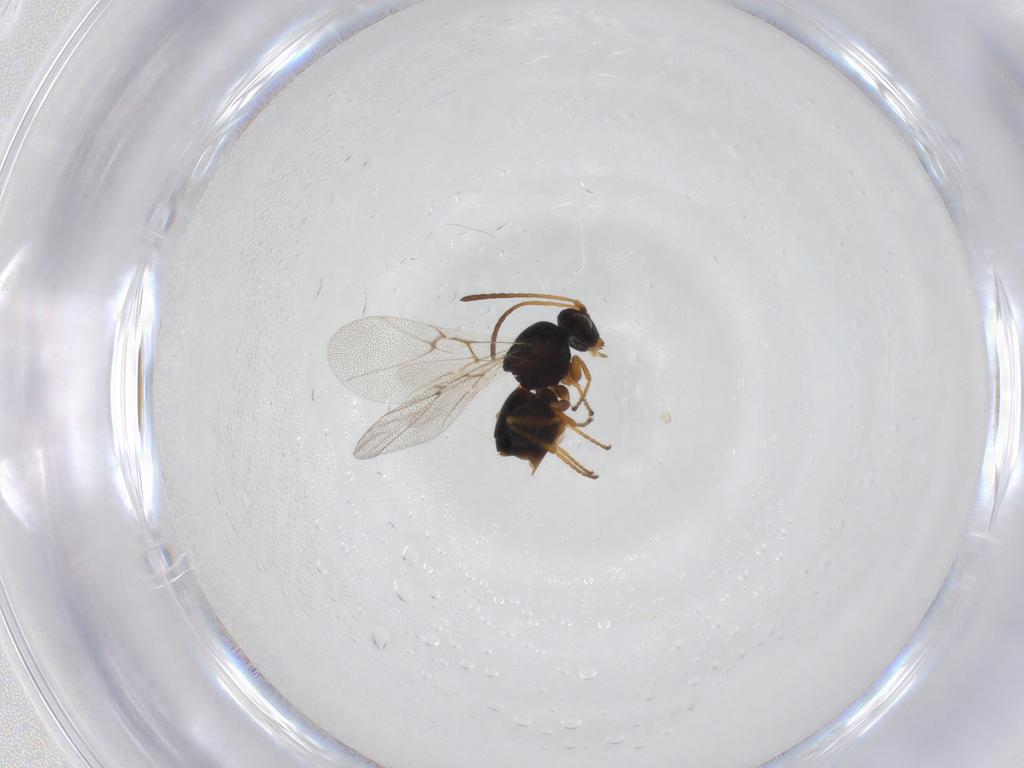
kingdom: Animalia
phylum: Arthropoda
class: Insecta
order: Hymenoptera
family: Cynipidae
